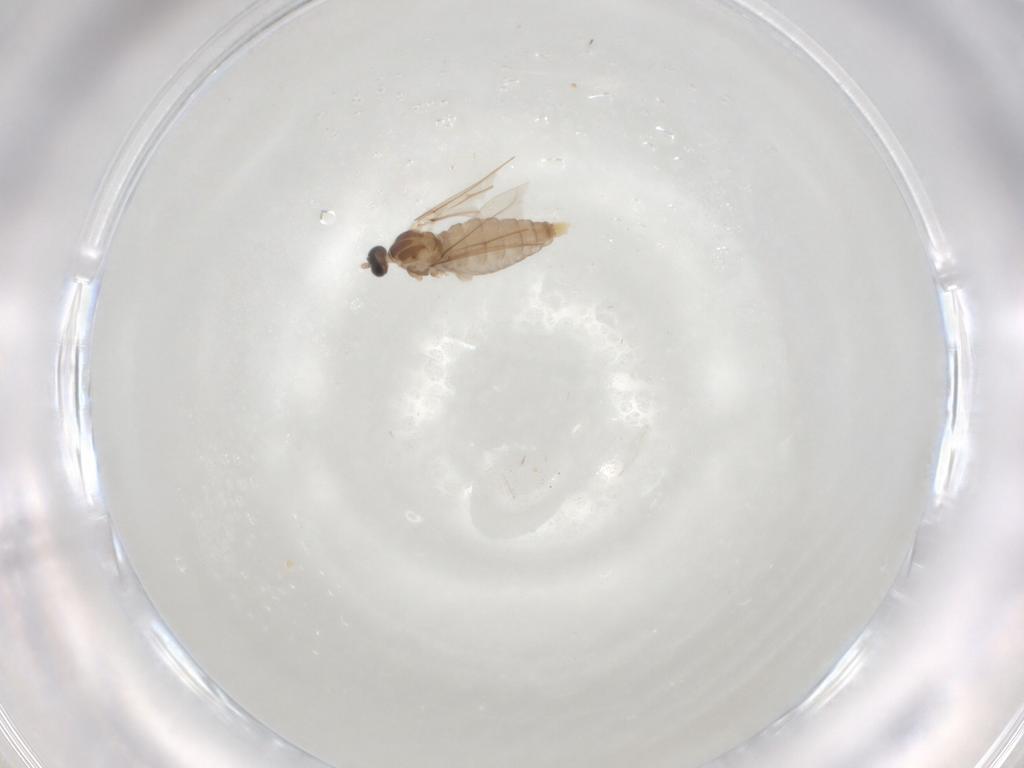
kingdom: Animalia
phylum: Arthropoda
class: Insecta
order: Diptera
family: Cecidomyiidae
